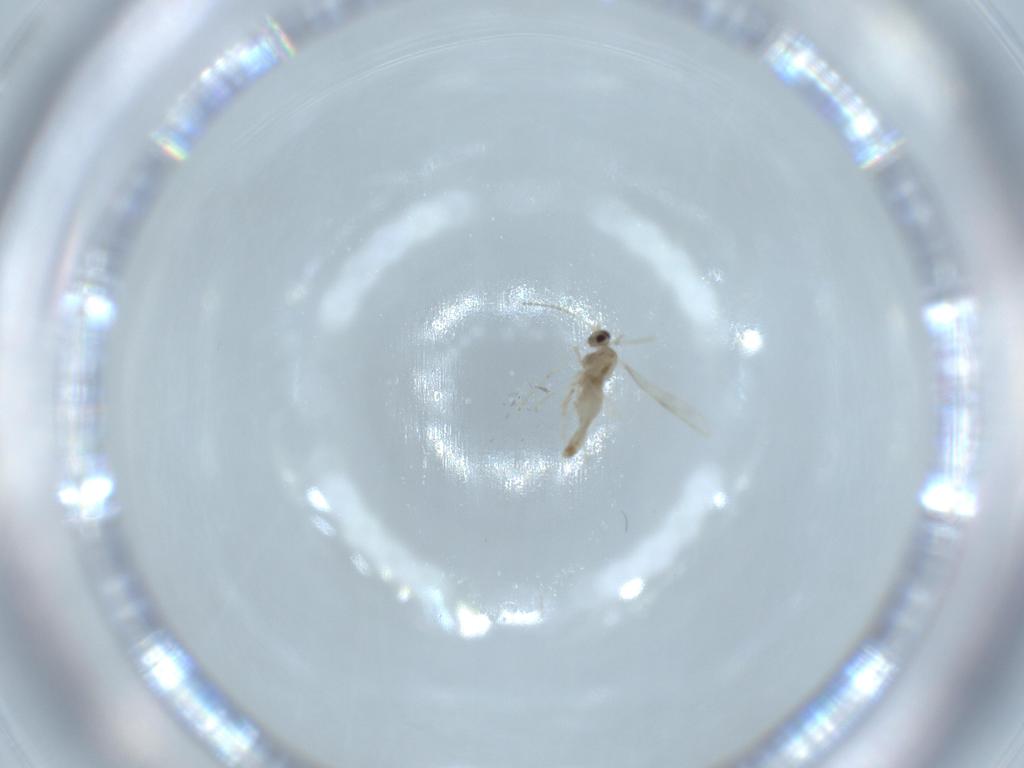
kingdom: Animalia
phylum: Arthropoda
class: Insecta
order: Diptera
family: Cecidomyiidae
